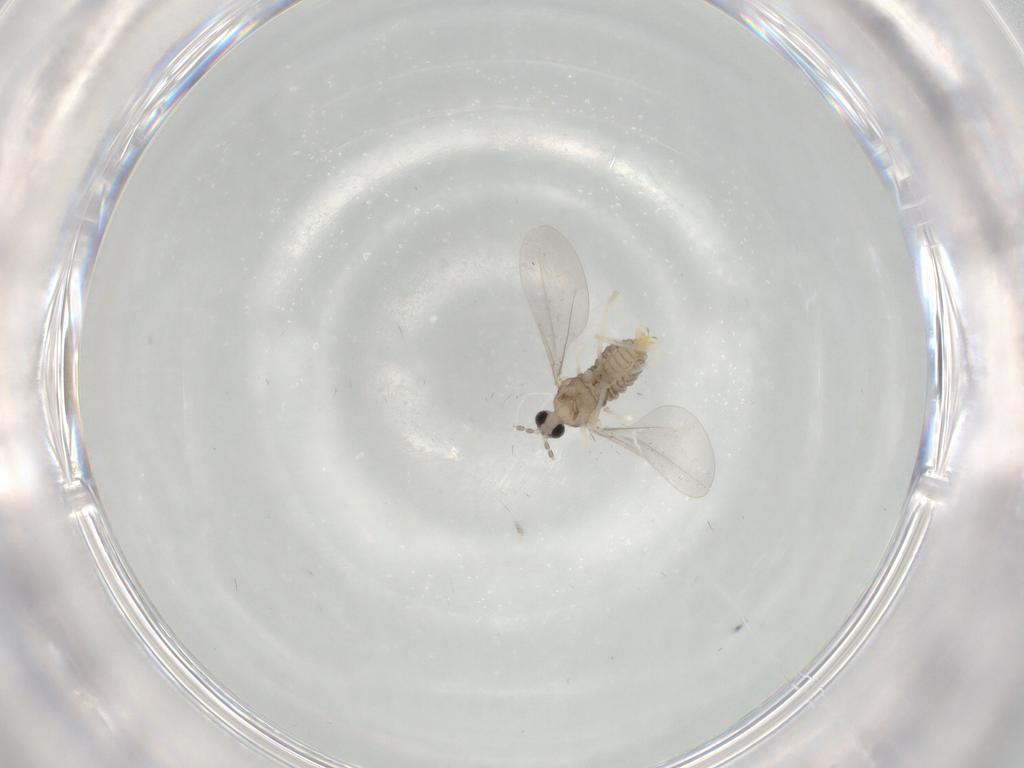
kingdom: Animalia
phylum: Arthropoda
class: Insecta
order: Diptera
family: Cecidomyiidae
